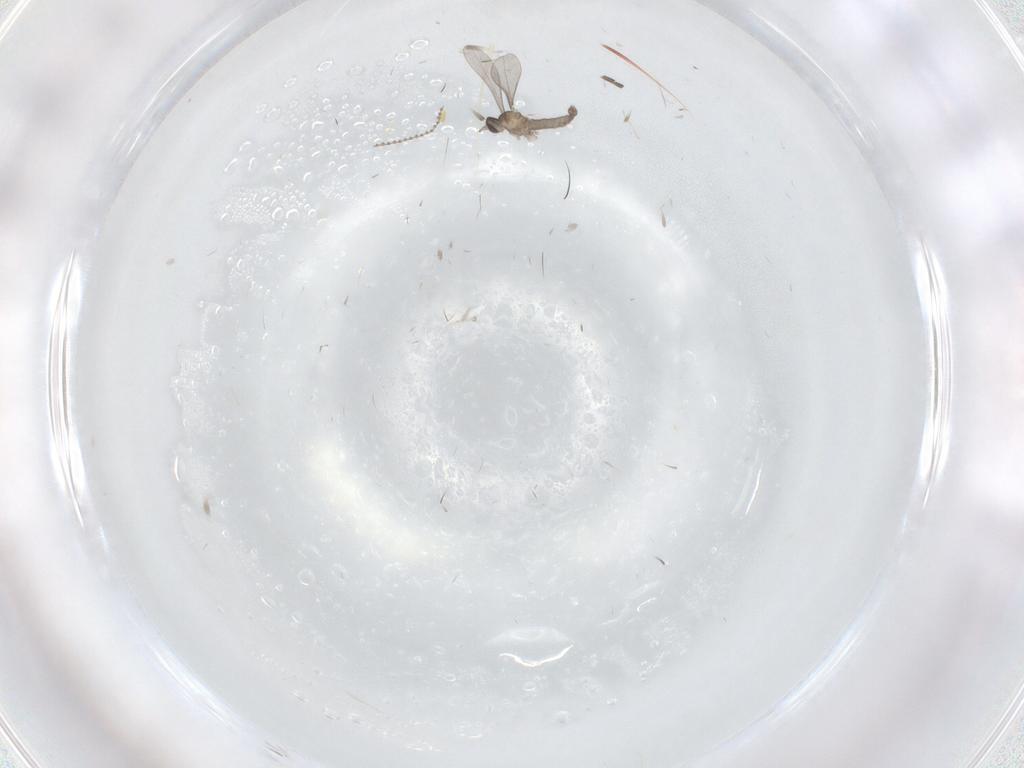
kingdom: Animalia
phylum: Arthropoda
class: Insecta
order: Diptera
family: Cecidomyiidae
